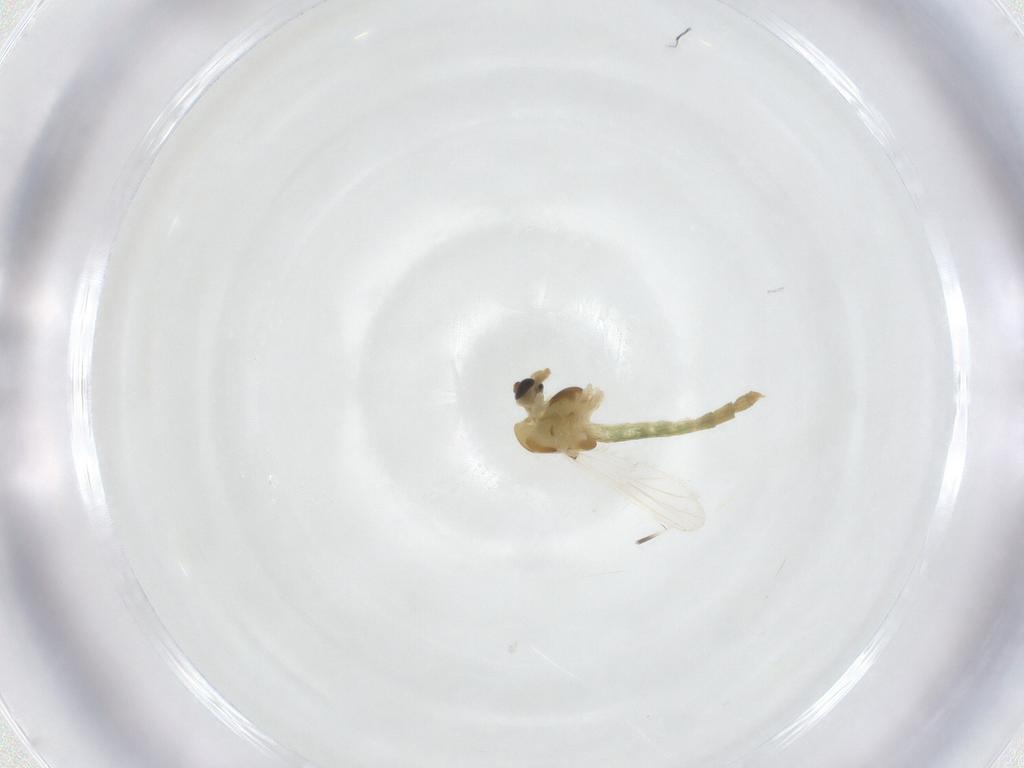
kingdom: Animalia
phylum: Arthropoda
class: Insecta
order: Diptera
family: Chironomidae
